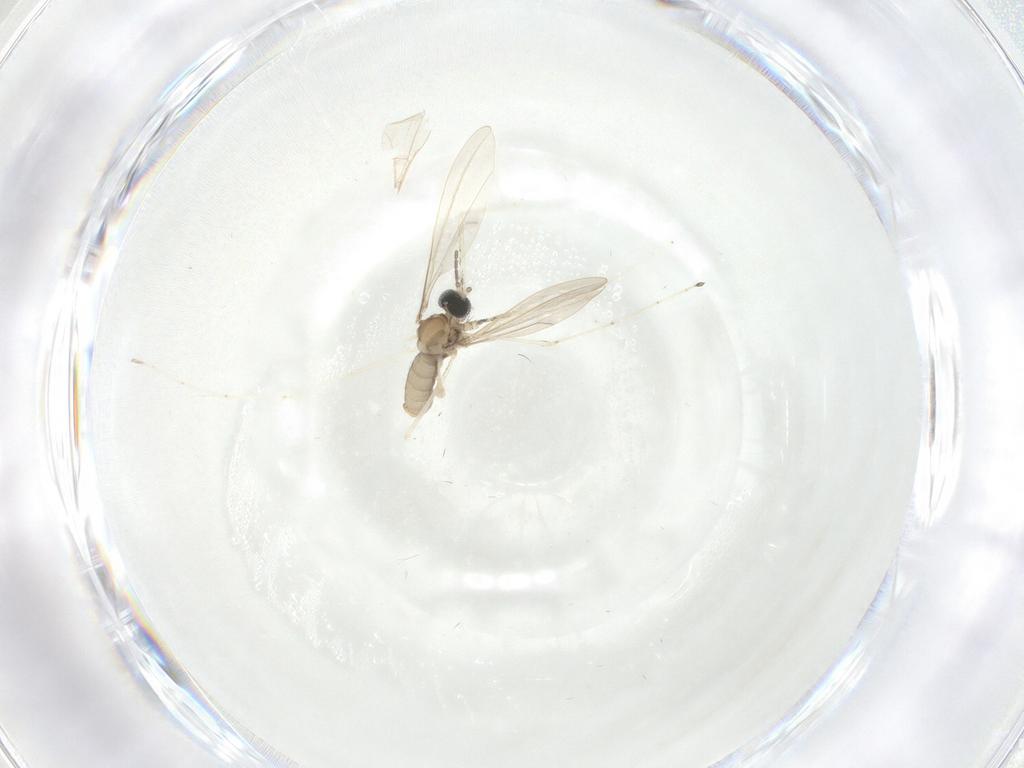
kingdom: Animalia
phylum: Arthropoda
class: Insecta
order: Diptera
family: Cecidomyiidae
